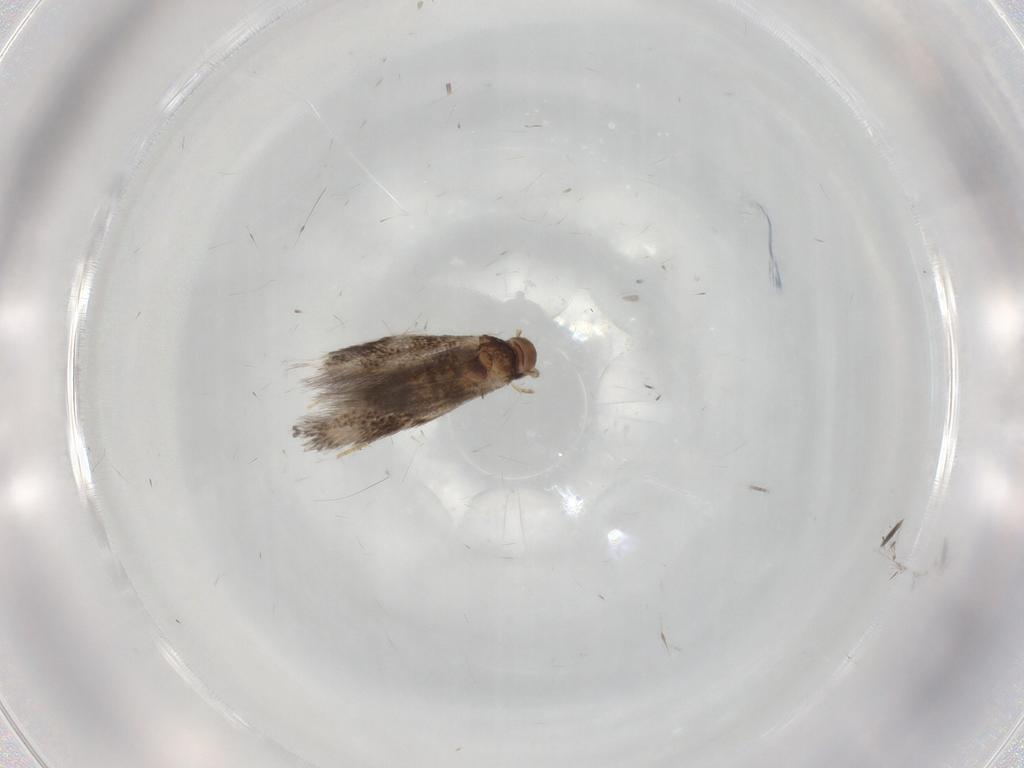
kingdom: Animalia
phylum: Arthropoda
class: Insecta
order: Lepidoptera
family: Elachistidae
